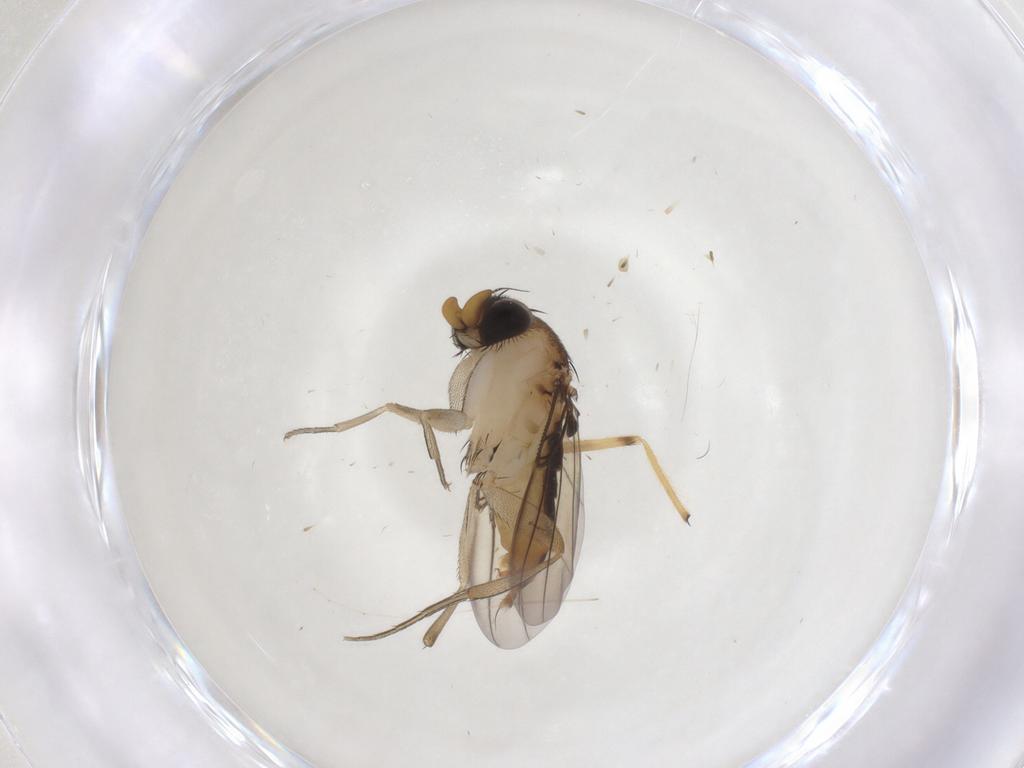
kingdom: Animalia
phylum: Arthropoda
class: Insecta
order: Diptera
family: Phoridae
